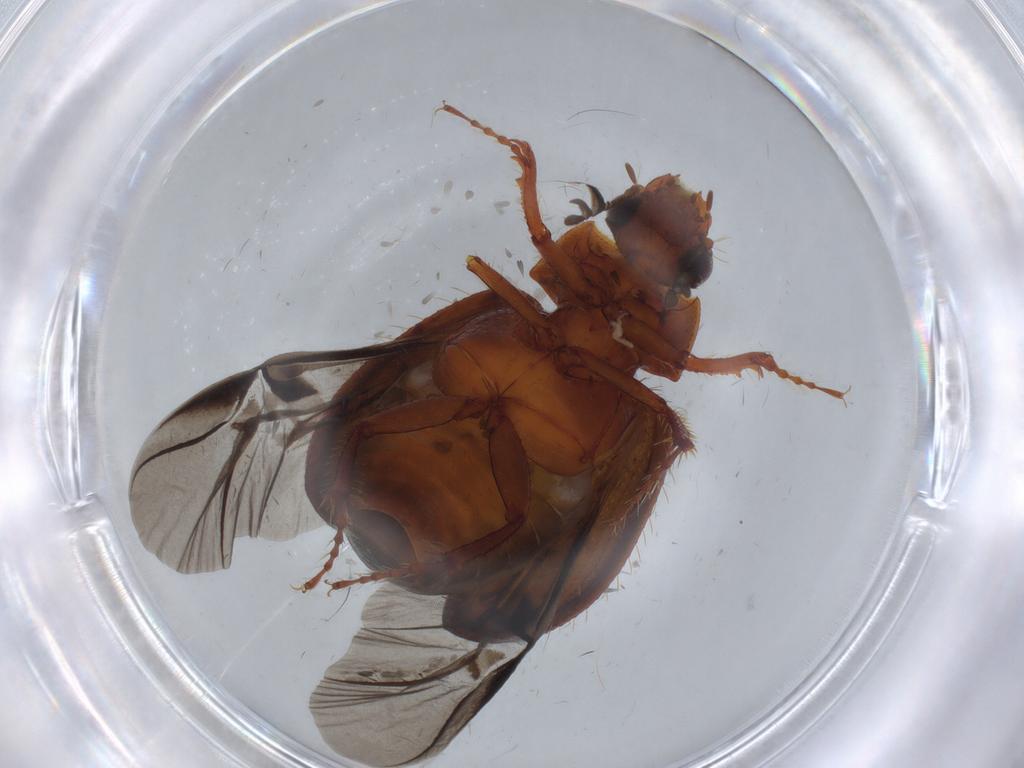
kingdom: Animalia
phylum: Arthropoda
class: Insecta
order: Coleoptera
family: Chrysomelidae
